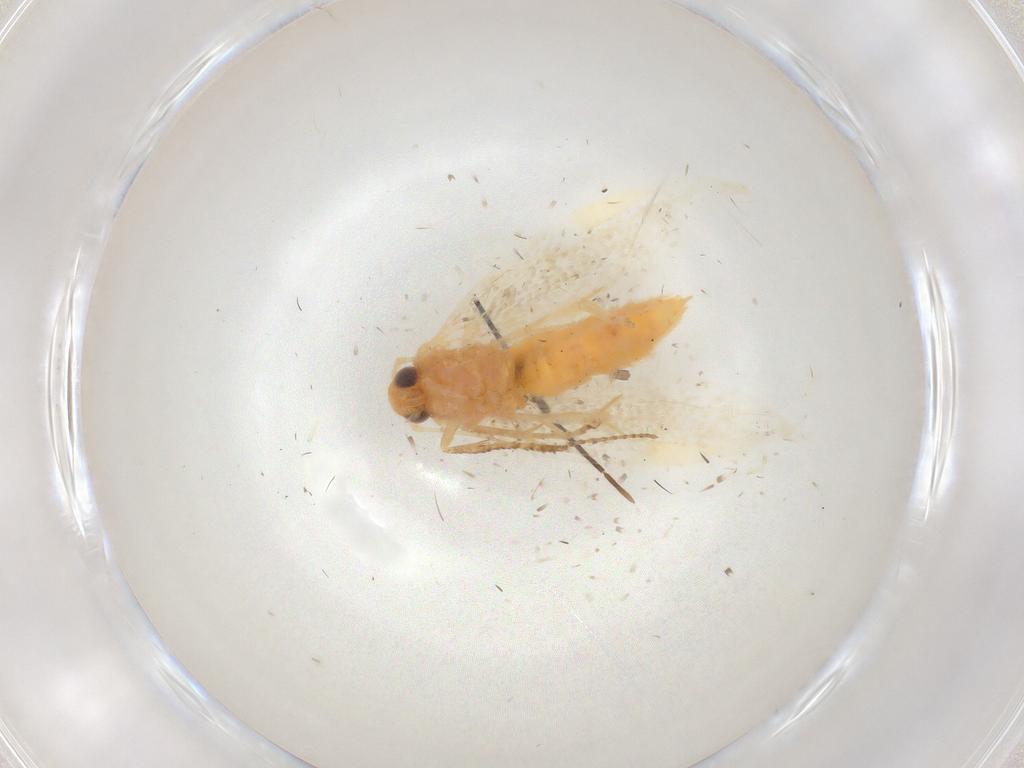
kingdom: Animalia
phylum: Arthropoda
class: Insecta
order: Lepidoptera
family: Argyresthiidae
